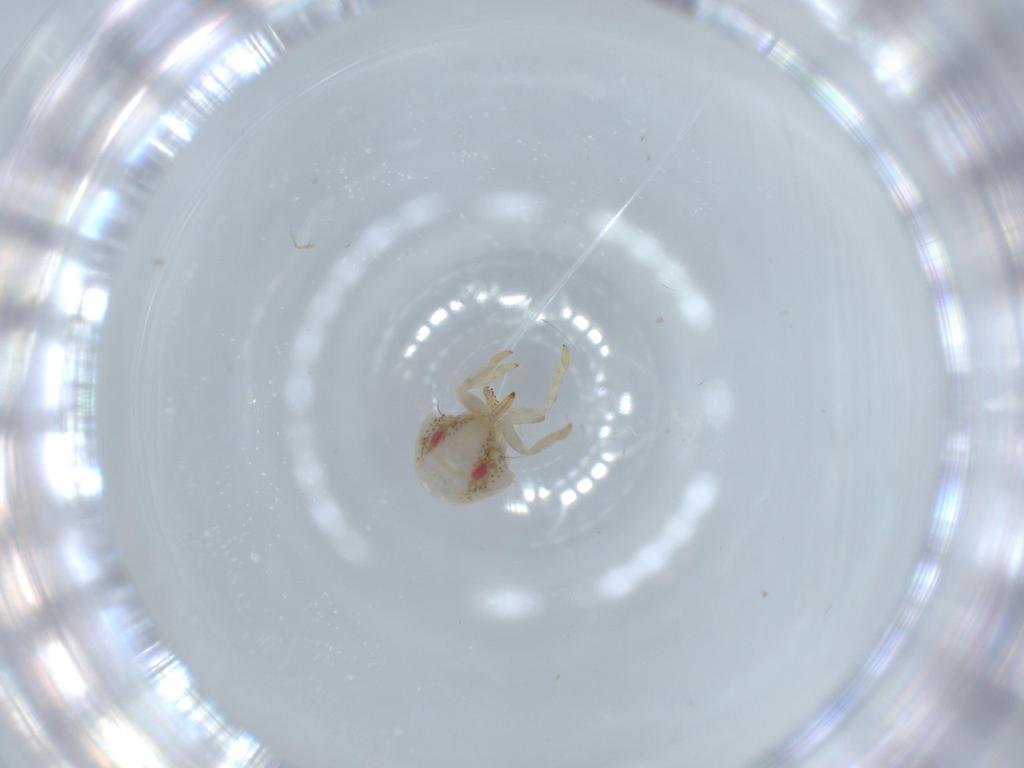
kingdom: Animalia
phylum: Arthropoda
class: Insecta
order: Hemiptera
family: Acanaloniidae
